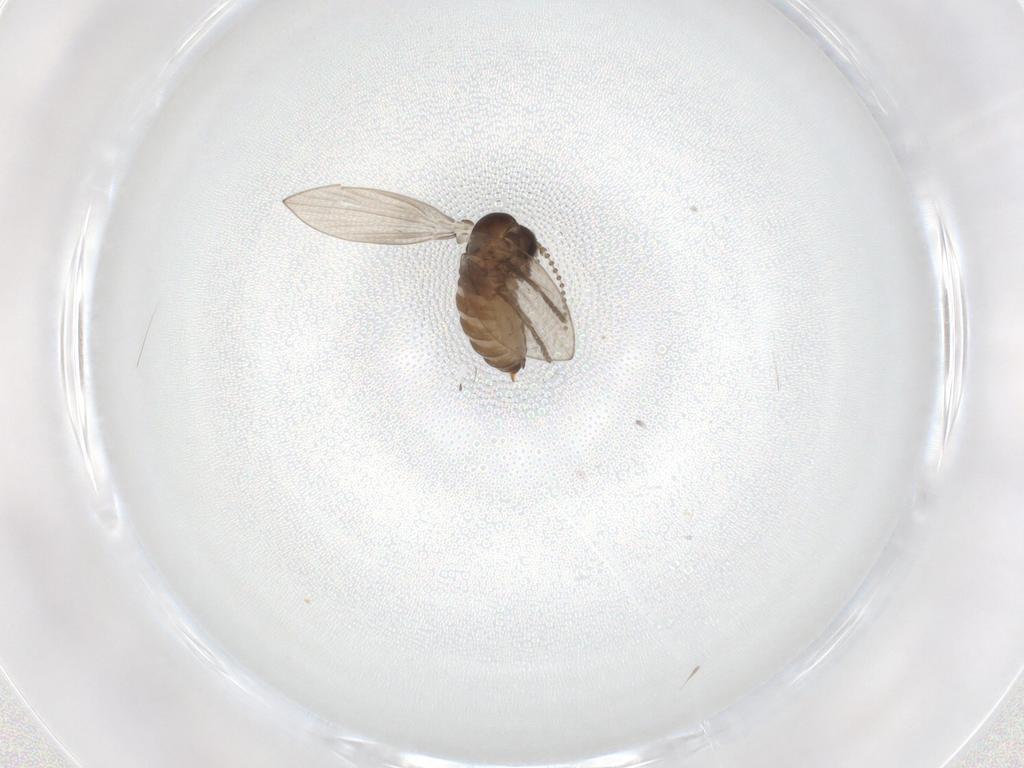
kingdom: Animalia
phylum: Arthropoda
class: Insecta
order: Diptera
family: Psychodidae
